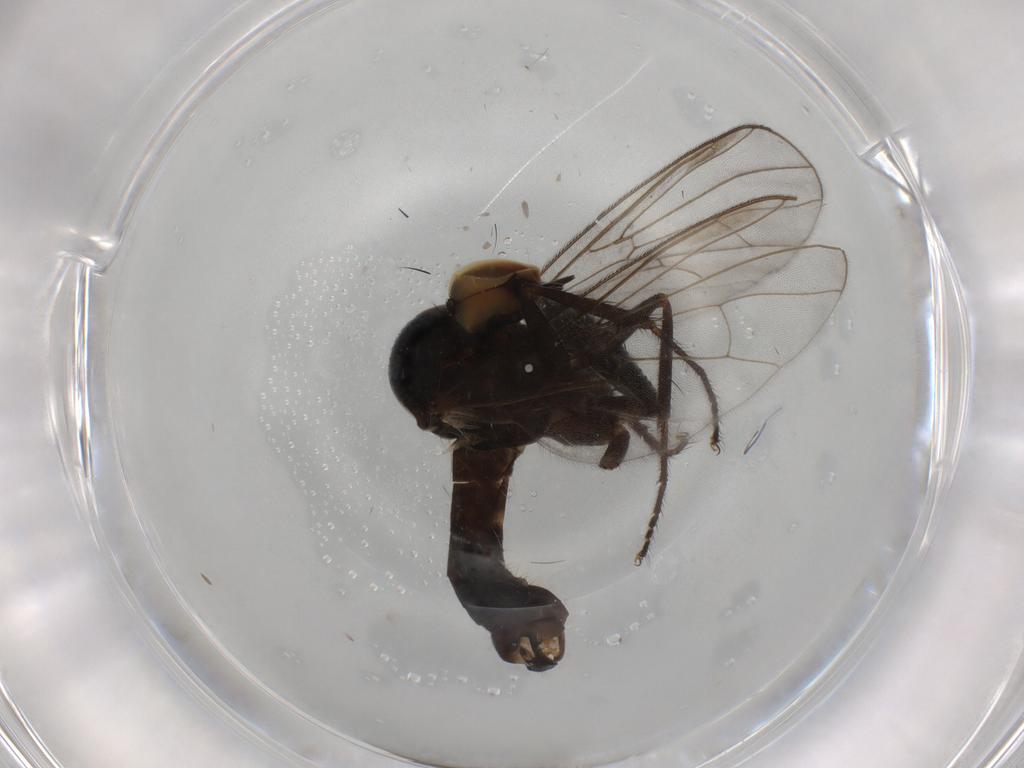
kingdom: Animalia
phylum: Arthropoda
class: Insecta
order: Diptera
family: Muscidae
